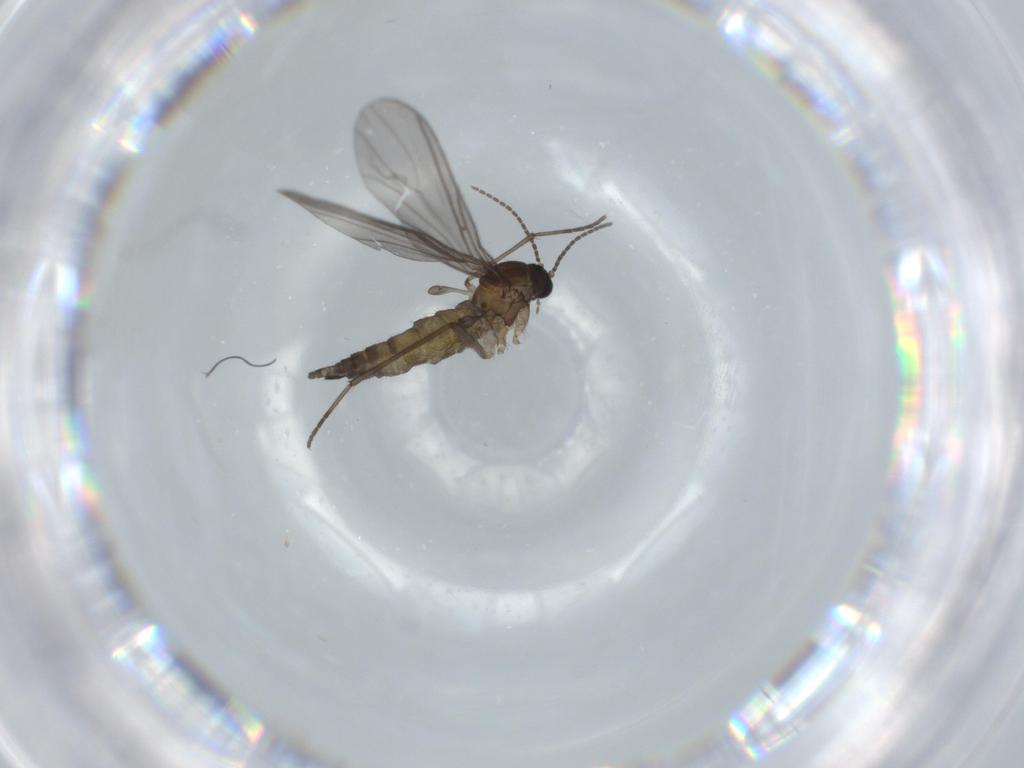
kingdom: Animalia
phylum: Arthropoda
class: Insecta
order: Diptera
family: Sciaridae
